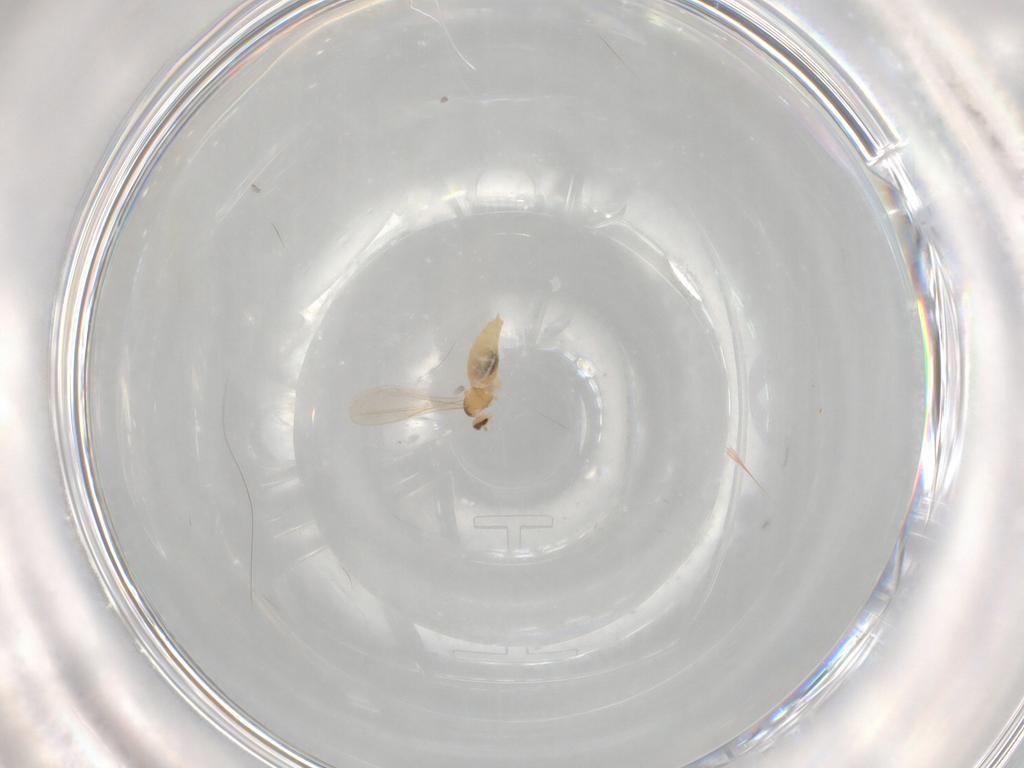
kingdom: Animalia
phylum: Arthropoda
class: Insecta
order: Diptera
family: Cecidomyiidae
